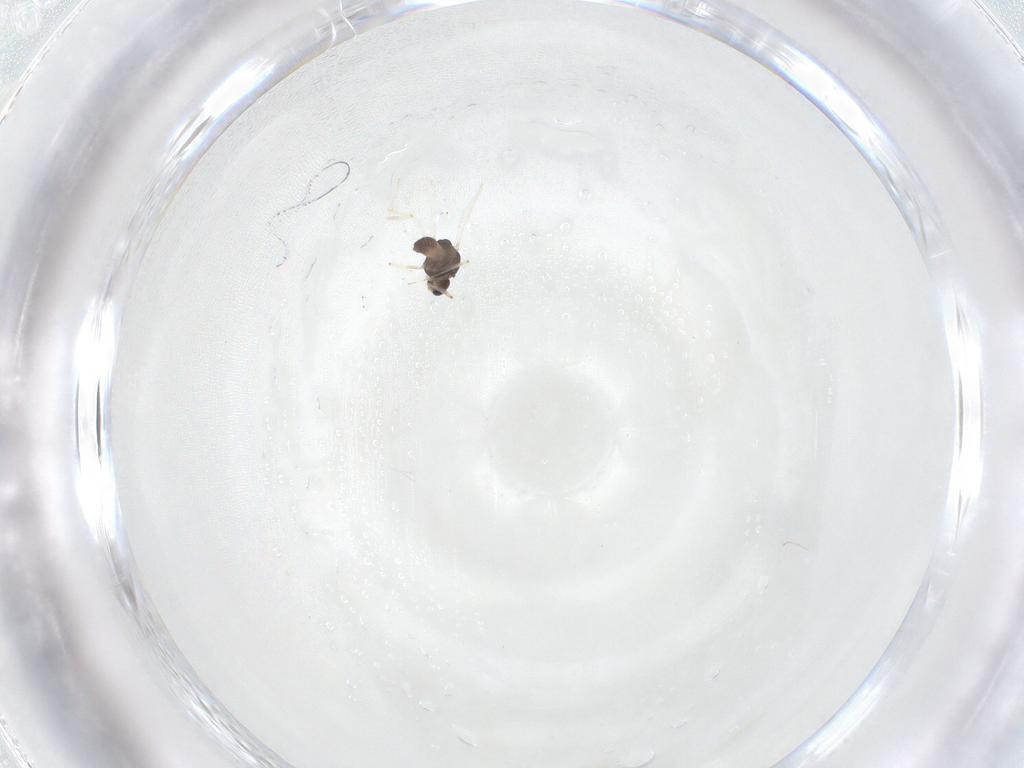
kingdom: Animalia
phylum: Arthropoda
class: Insecta
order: Diptera
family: Chironomidae
